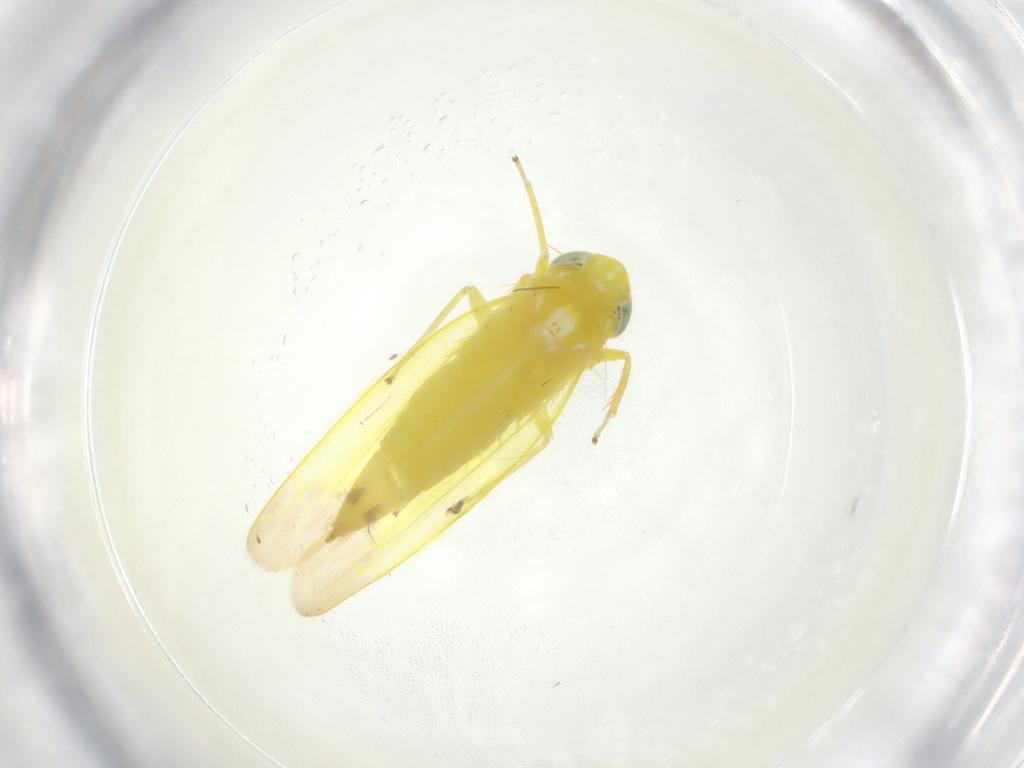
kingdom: Animalia
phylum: Arthropoda
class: Insecta
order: Hemiptera
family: Cicadellidae
